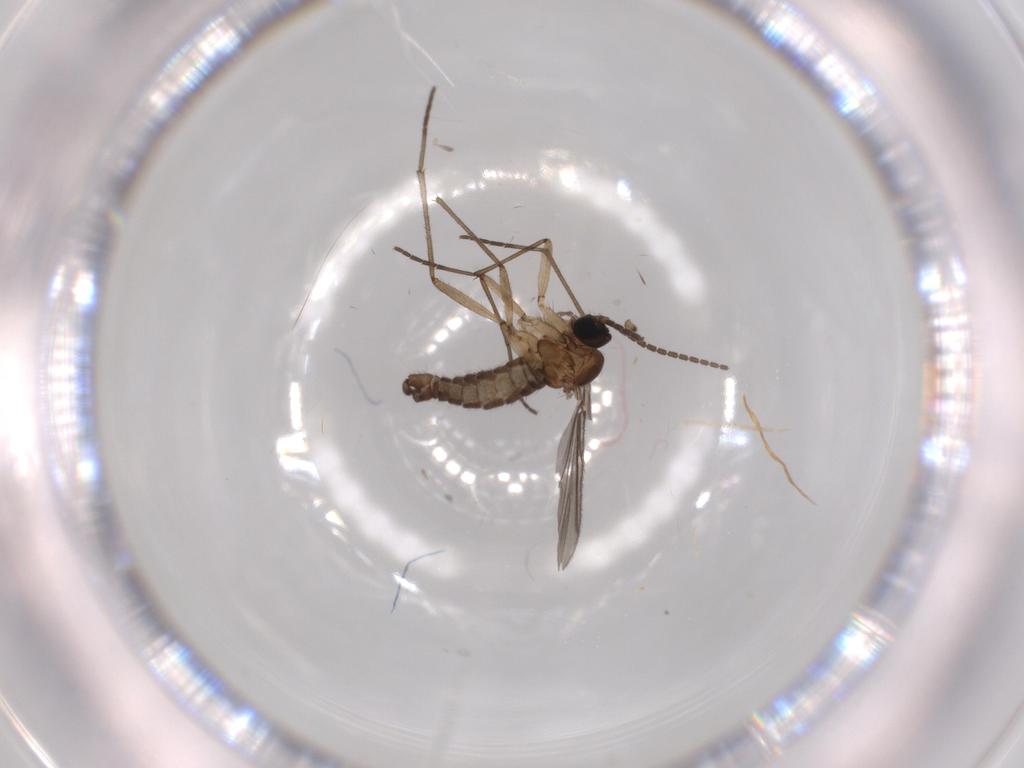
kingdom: Animalia
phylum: Arthropoda
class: Insecta
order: Diptera
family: Sciaridae
